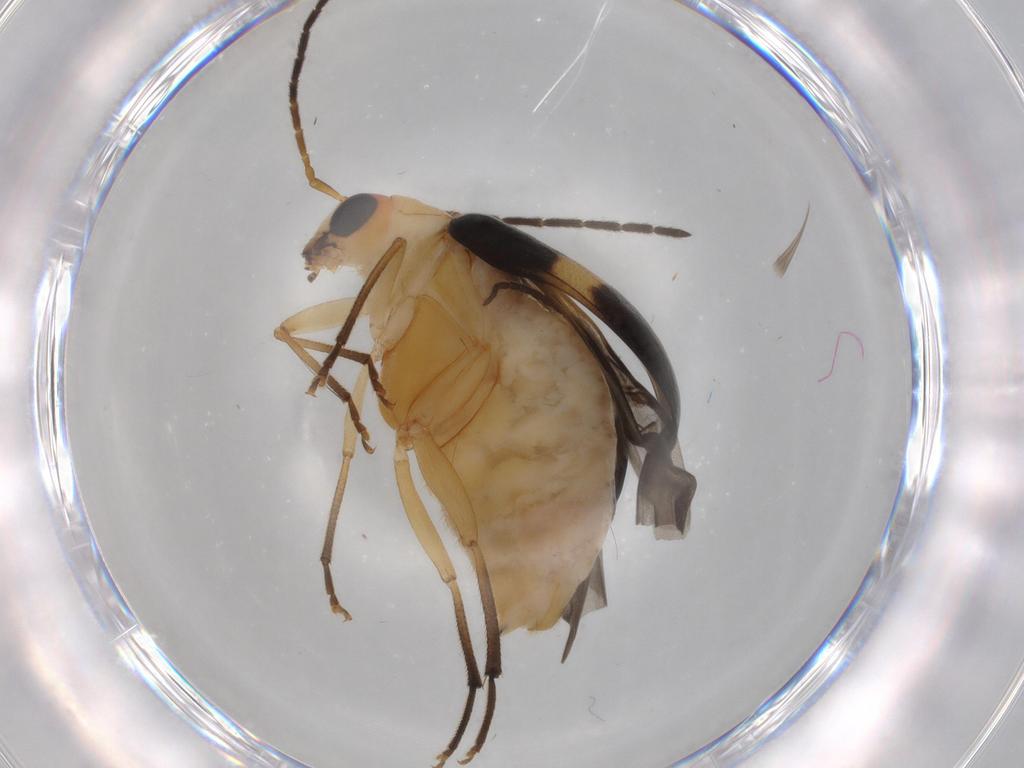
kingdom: Animalia
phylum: Arthropoda
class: Insecta
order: Coleoptera
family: Chrysomelidae
